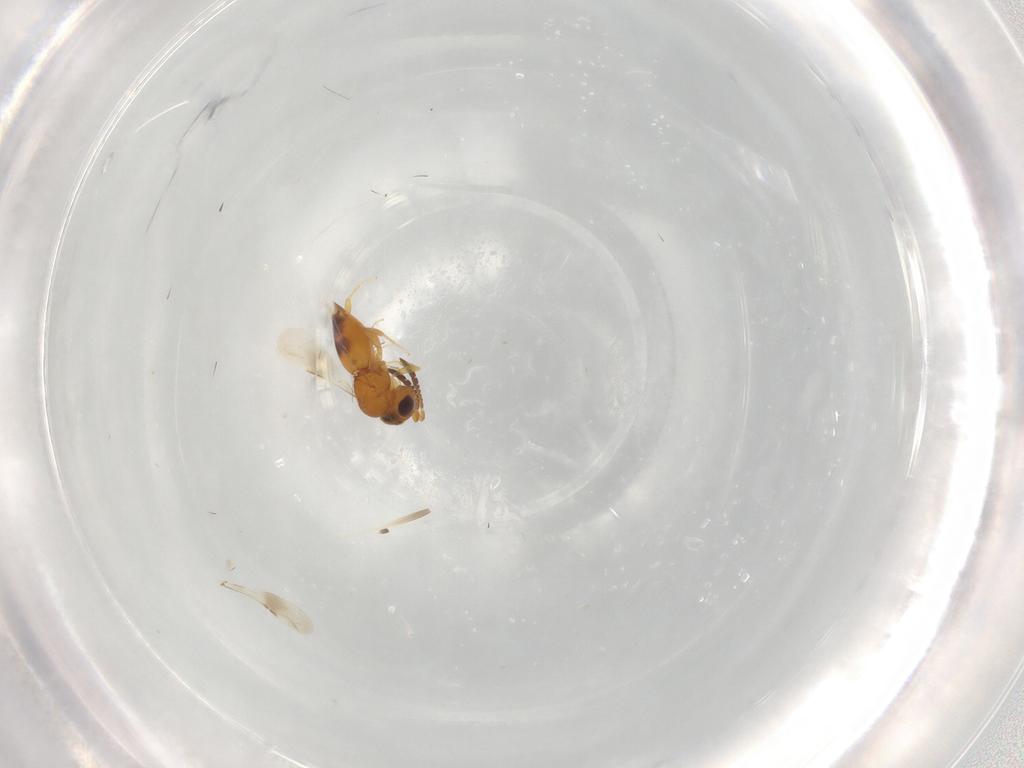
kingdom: Animalia
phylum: Arthropoda
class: Insecta
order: Hymenoptera
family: Ceraphronidae
